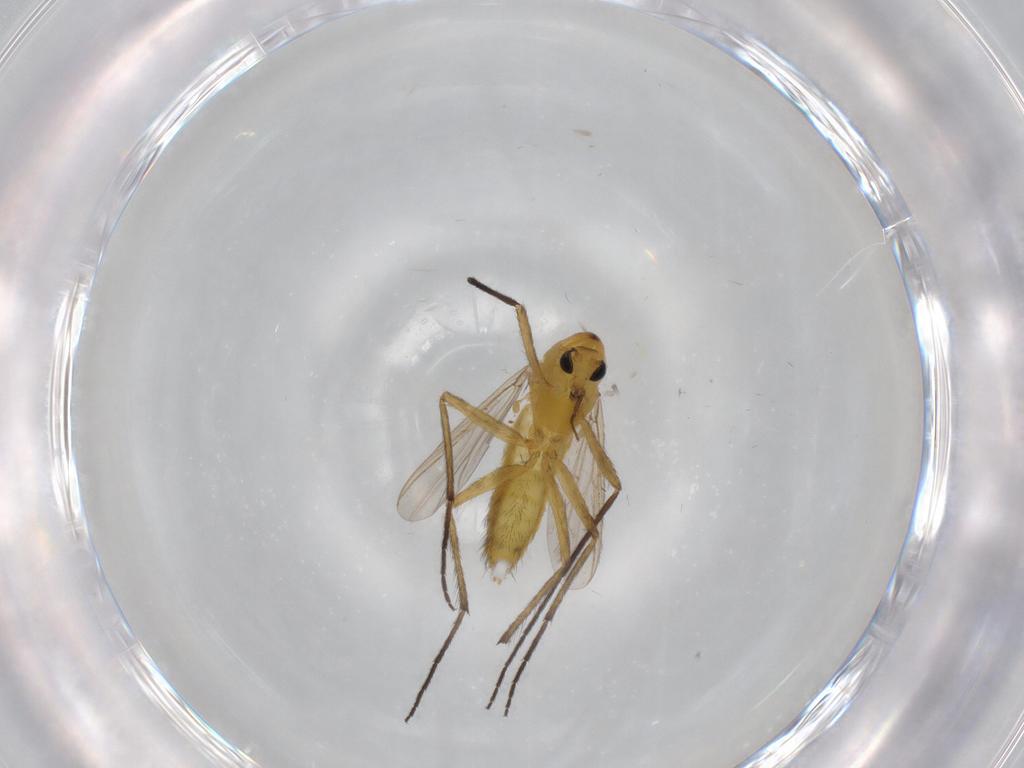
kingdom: Animalia
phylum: Arthropoda
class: Insecta
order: Diptera
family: Chironomidae
